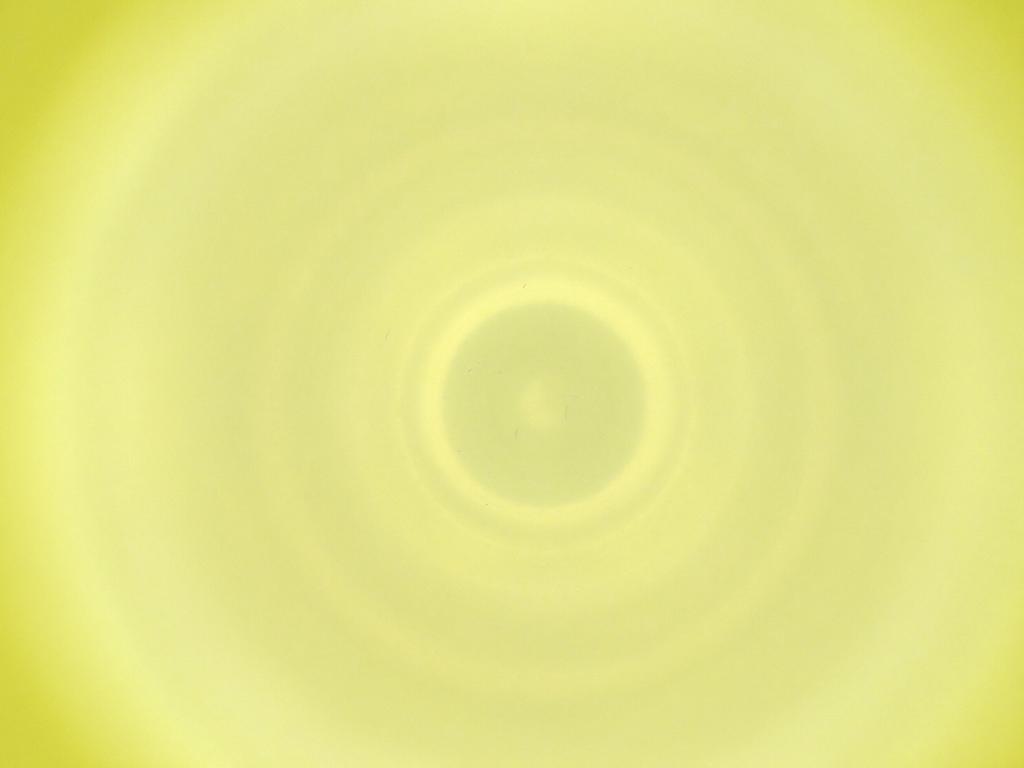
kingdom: Animalia
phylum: Arthropoda
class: Insecta
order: Diptera
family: Cecidomyiidae
